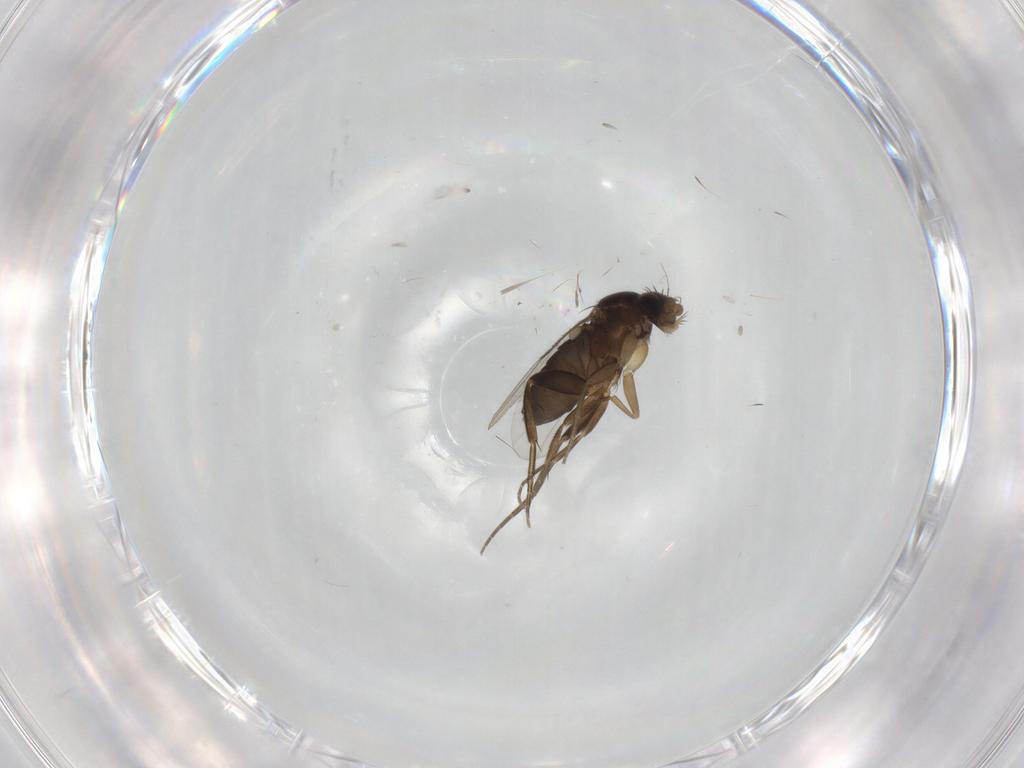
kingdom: Animalia
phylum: Arthropoda
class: Insecta
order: Diptera
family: Phoridae
